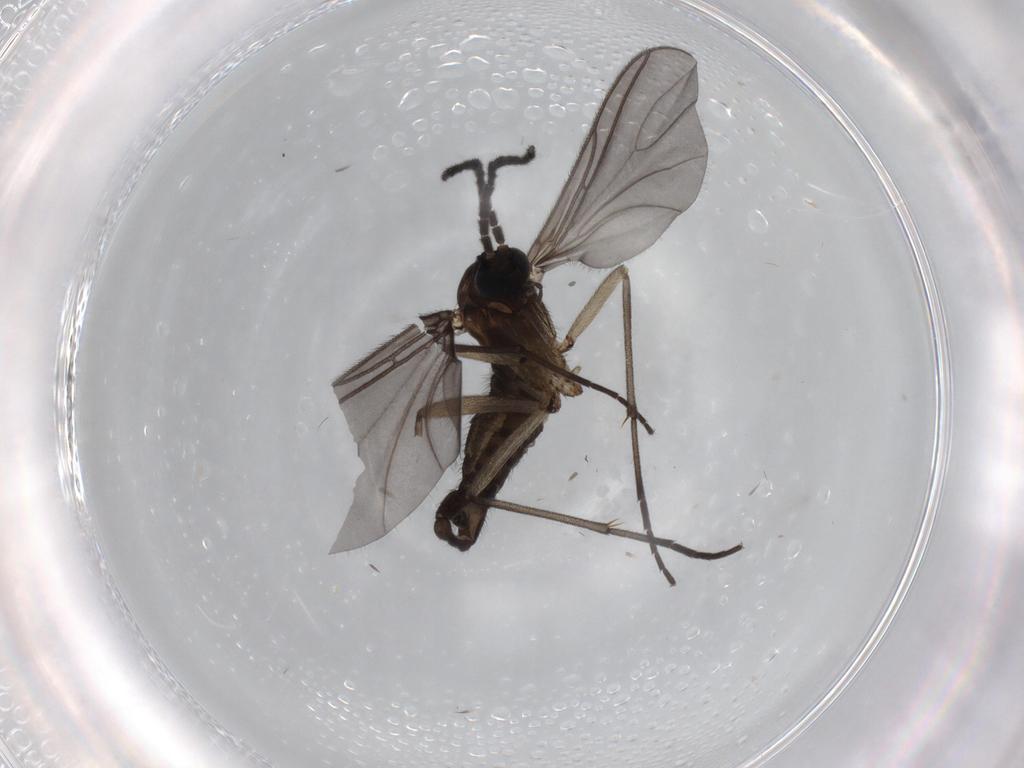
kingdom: Animalia
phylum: Arthropoda
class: Insecta
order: Diptera
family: Sciaridae
